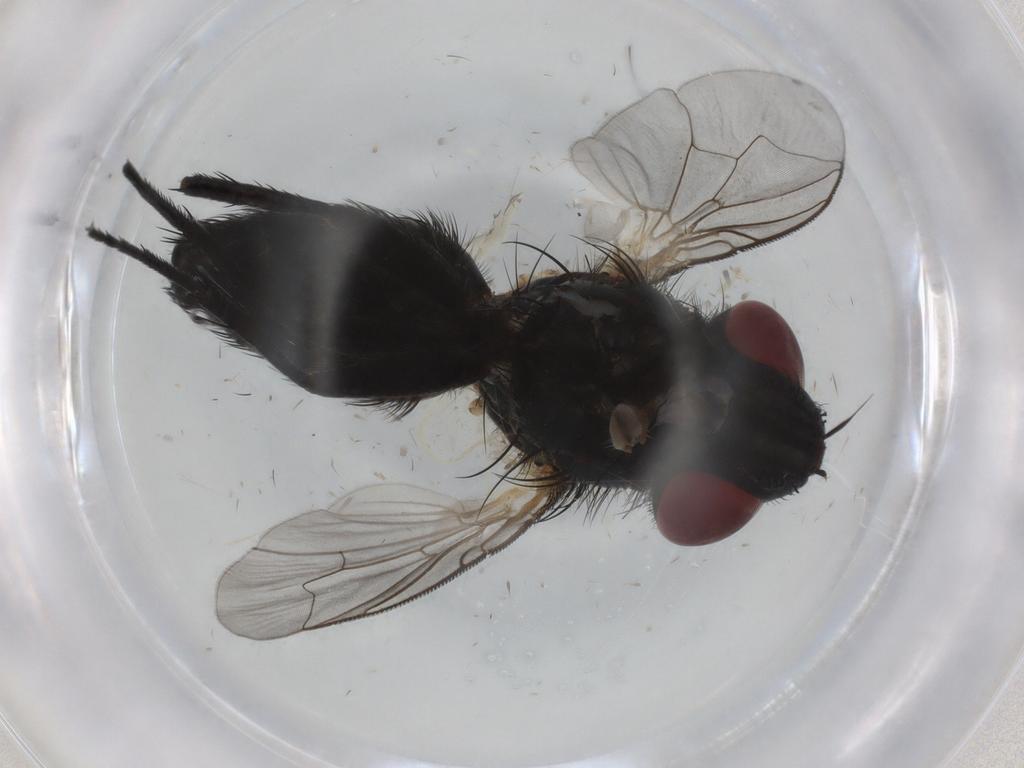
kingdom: Animalia
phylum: Arthropoda
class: Insecta
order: Diptera
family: Sarcophagidae
